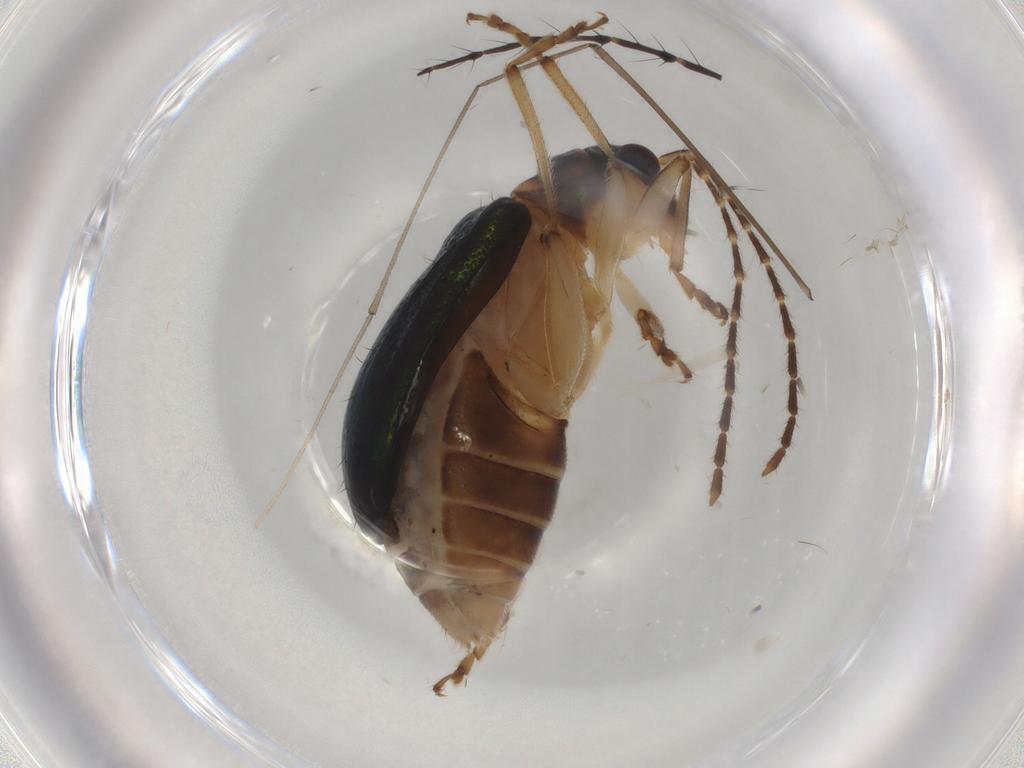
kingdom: Animalia
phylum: Arthropoda
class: Insecta
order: Coleoptera
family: Chrysomelidae
